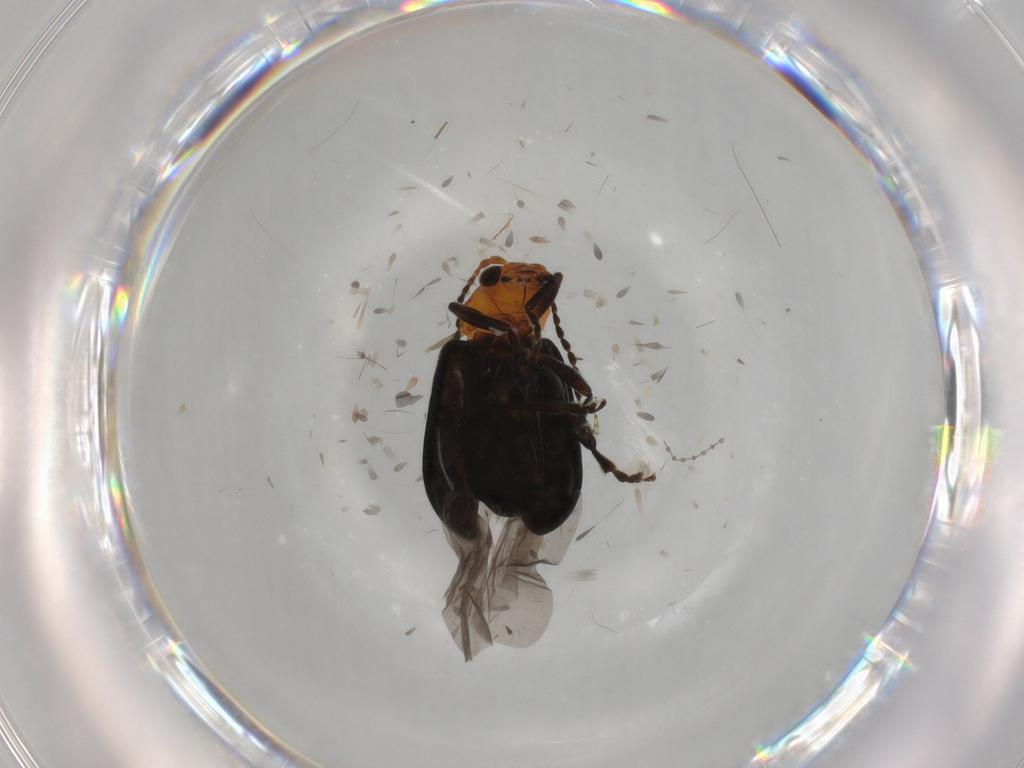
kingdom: Animalia
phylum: Arthropoda
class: Insecta
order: Coleoptera
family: Chrysomelidae
